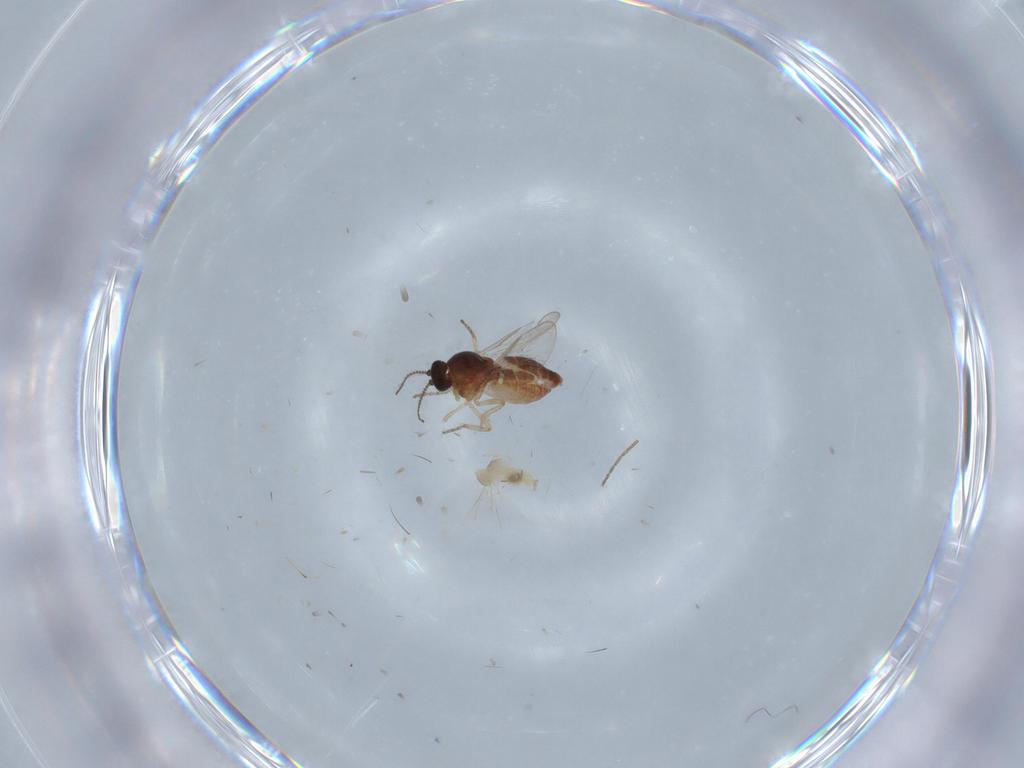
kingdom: Animalia
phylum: Arthropoda
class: Insecta
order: Diptera
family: Ceratopogonidae
